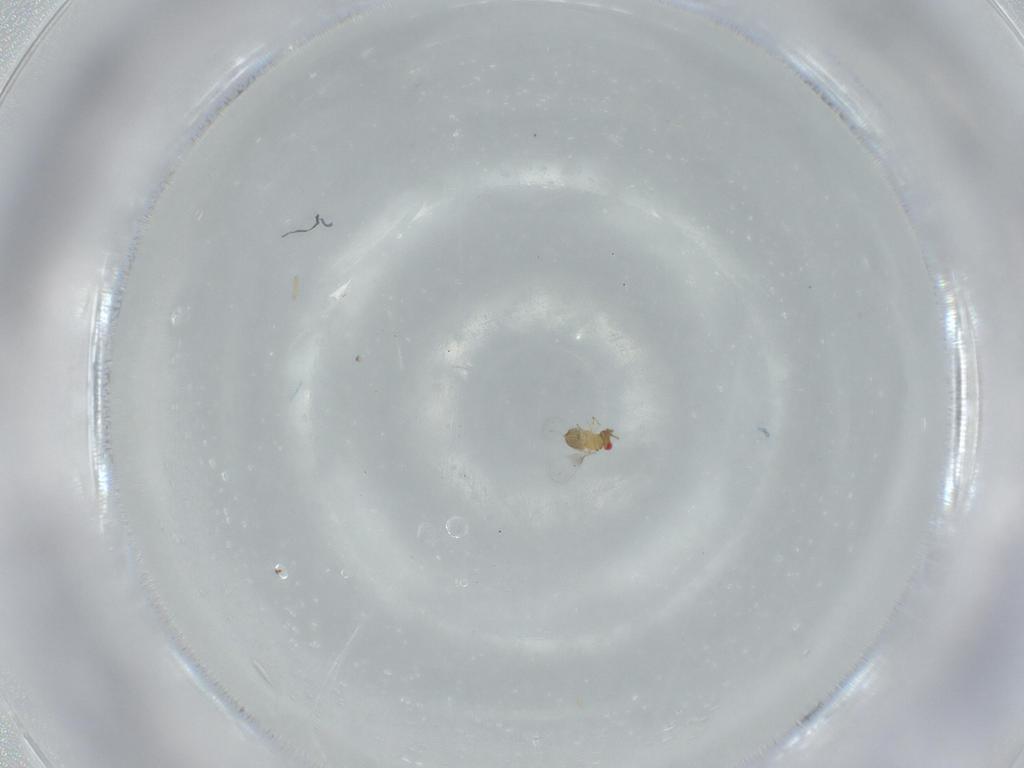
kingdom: Animalia
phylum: Arthropoda
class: Insecta
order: Hymenoptera
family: Trichogrammatidae
